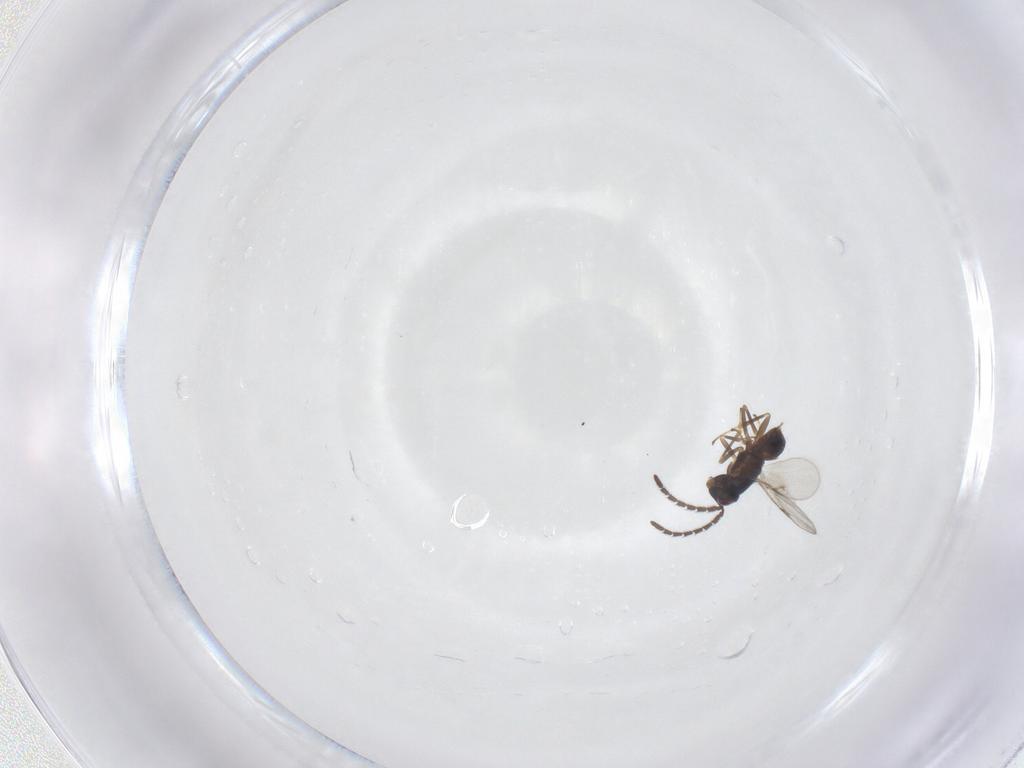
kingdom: Animalia
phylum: Arthropoda
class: Insecta
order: Hymenoptera
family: Encyrtidae
